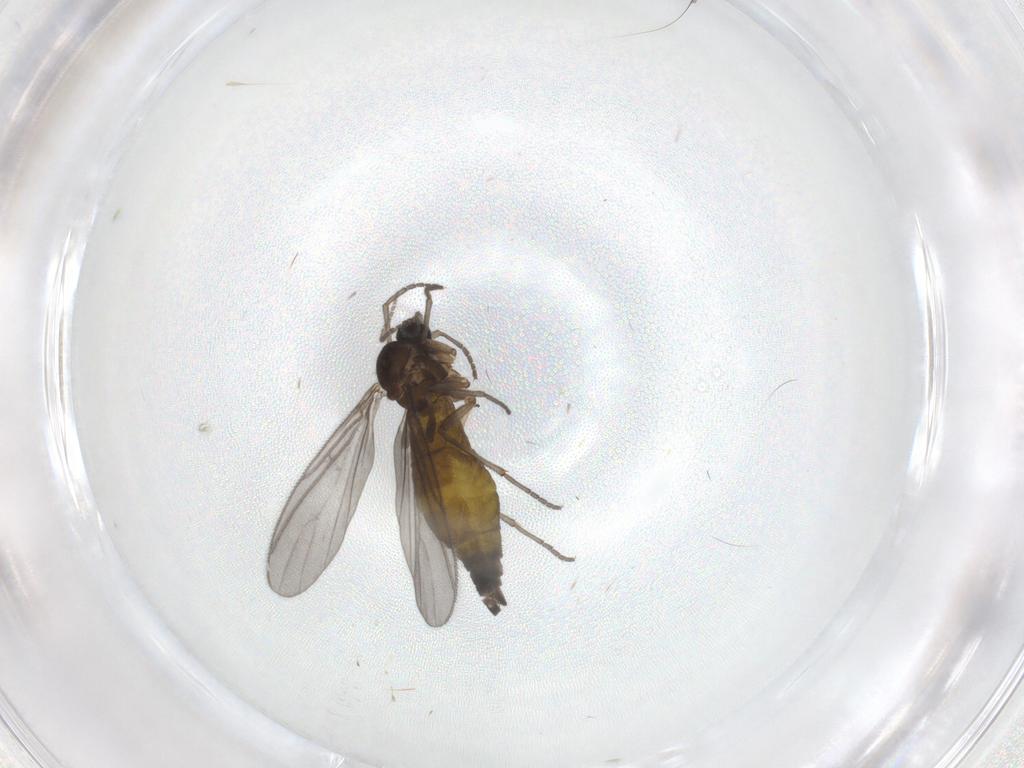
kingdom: Animalia
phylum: Arthropoda
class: Insecta
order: Diptera
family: Sciaridae
